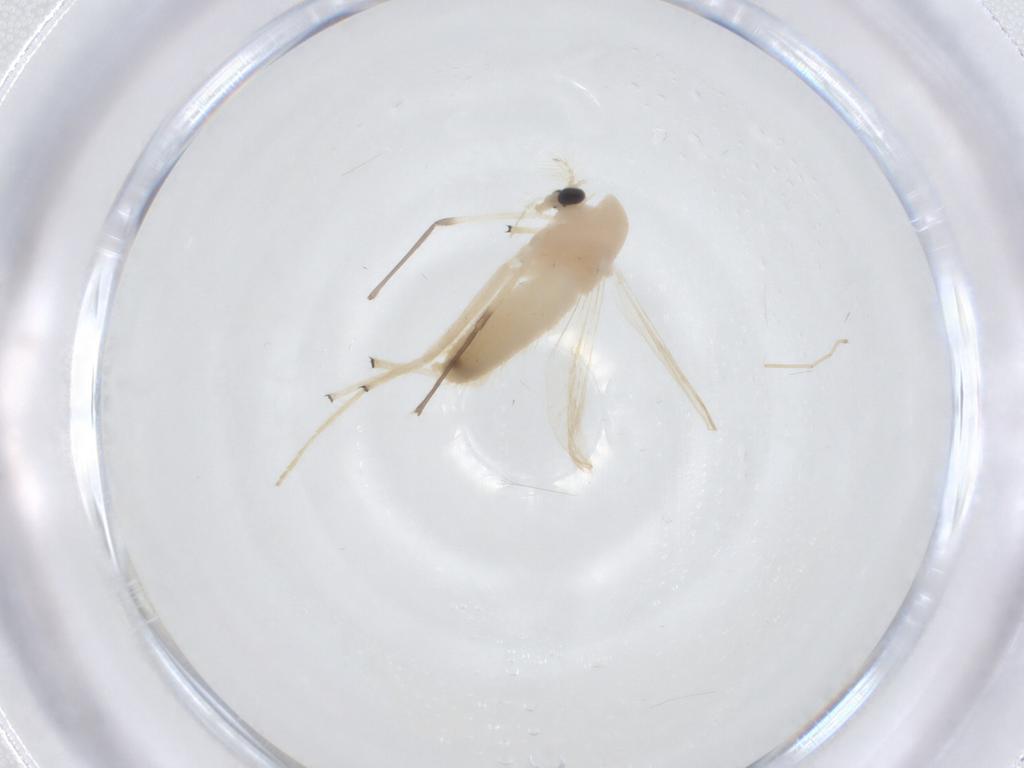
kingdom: Animalia
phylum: Arthropoda
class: Insecta
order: Diptera
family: Chironomidae
